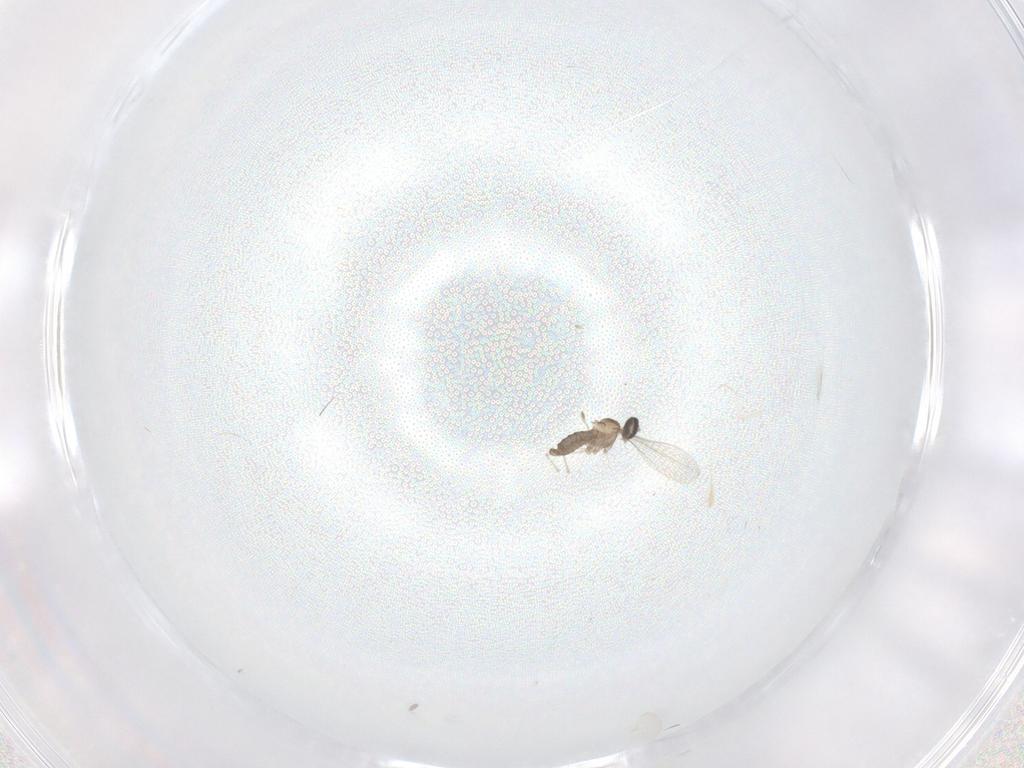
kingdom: Animalia
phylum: Arthropoda
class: Insecta
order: Diptera
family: Cecidomyiidae
